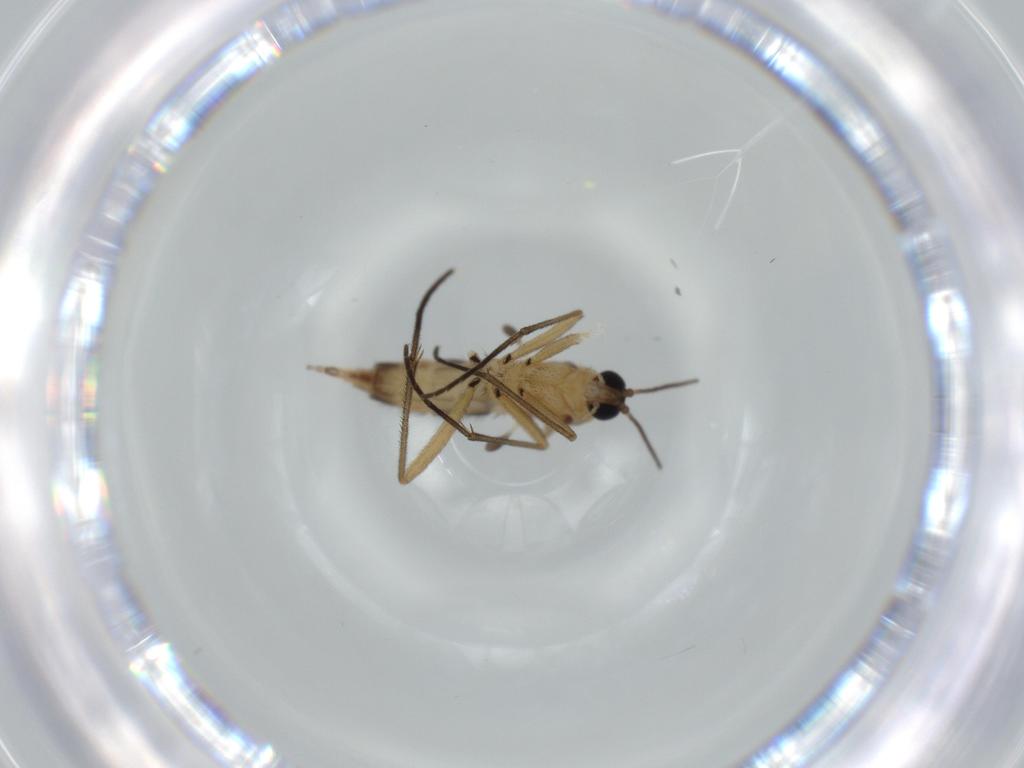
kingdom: Animalia
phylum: Arthropoda
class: Insecta
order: Diptera
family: Sciaridae
